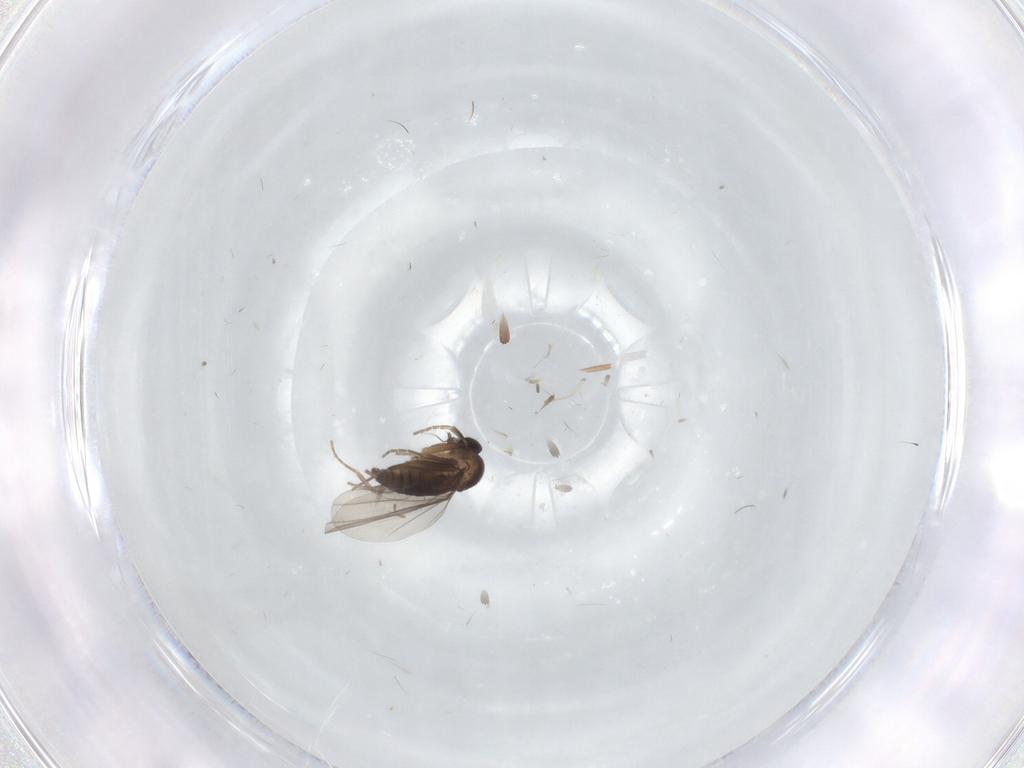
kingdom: Animalia
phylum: Arthropoda
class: Insecta
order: Diptera
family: Cecidomyiidae
